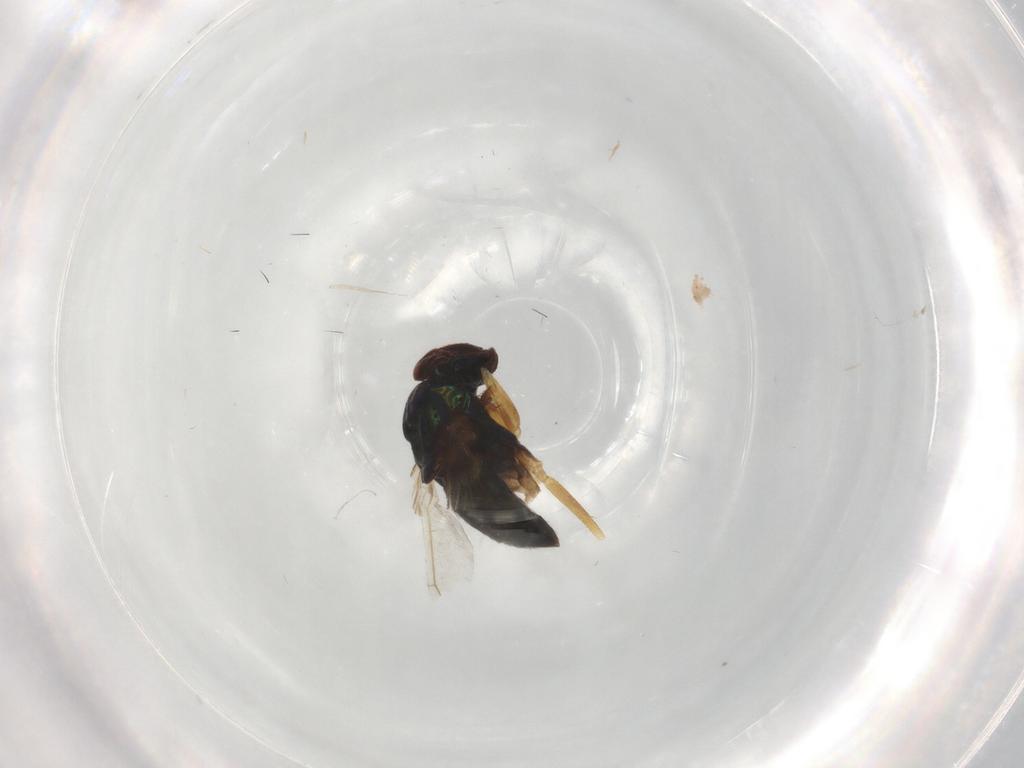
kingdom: Animalia
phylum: Arthropoda
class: Insecta
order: Diptera
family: Dolichopodidae
